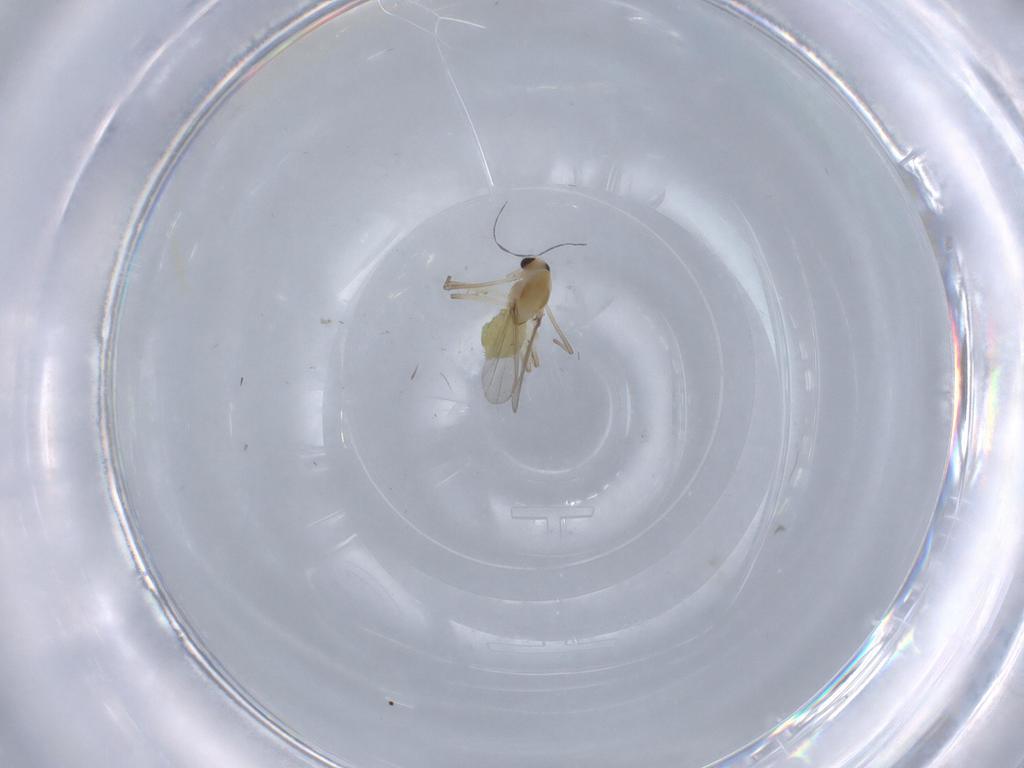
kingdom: Animalia
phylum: Arthropoda
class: Insecta
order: Diptera
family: Chironomidae
